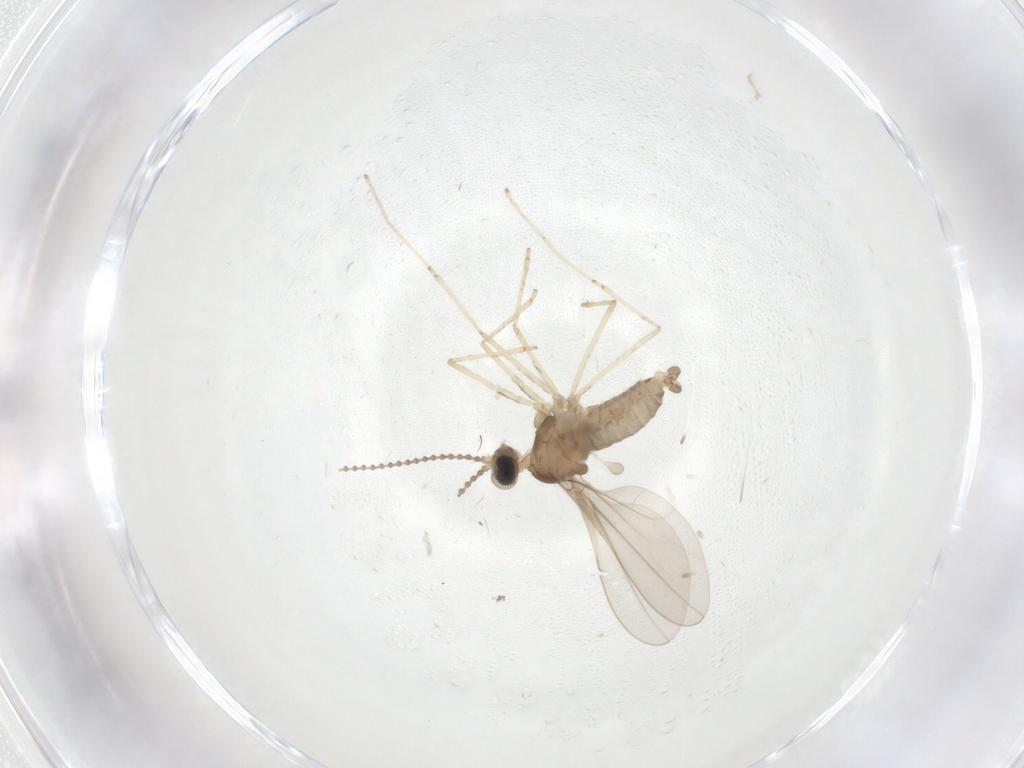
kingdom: Animalia
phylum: Arthropoda
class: Insecta
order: Diptera
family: Cecidomyiidae
